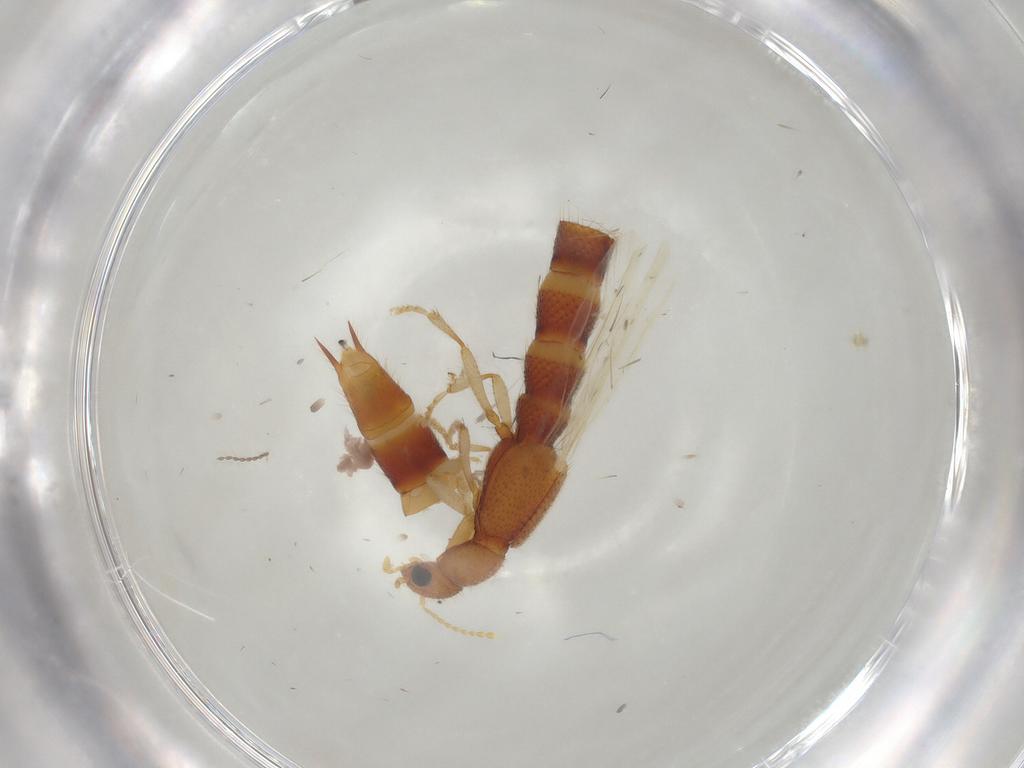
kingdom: Animalia
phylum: Arthropoda
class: Insecta
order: Coleoptera
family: Staphylinidae
